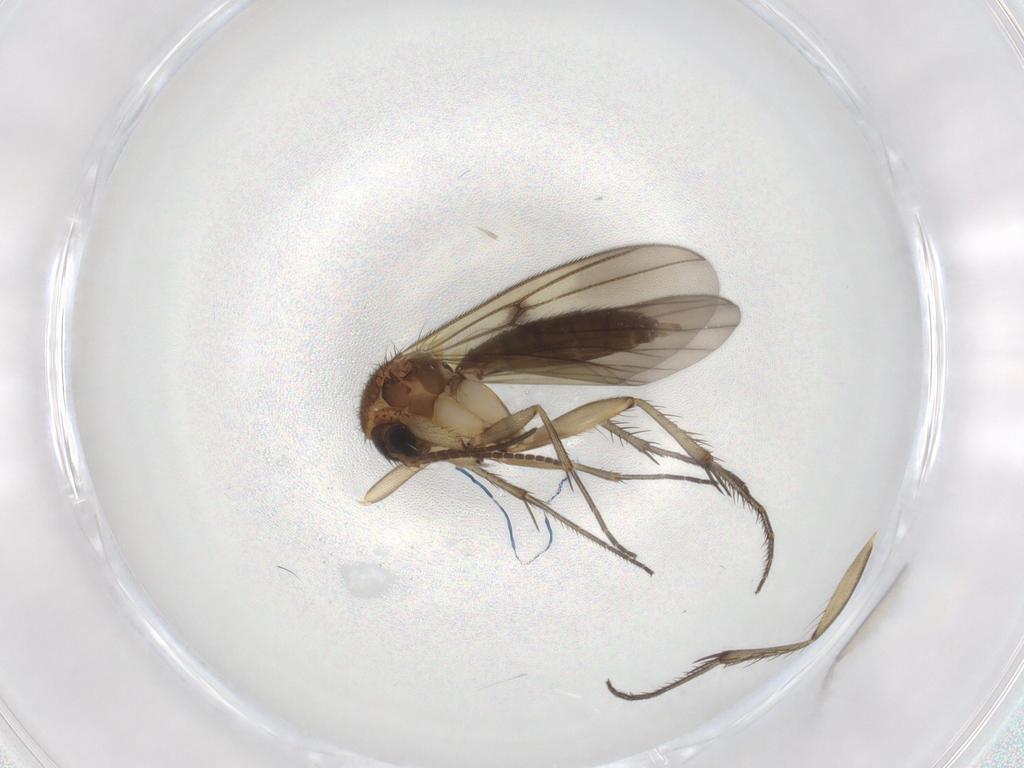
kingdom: Animalia
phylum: Arthropoda
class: Insecta
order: Diptera
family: Mycetophilidae
